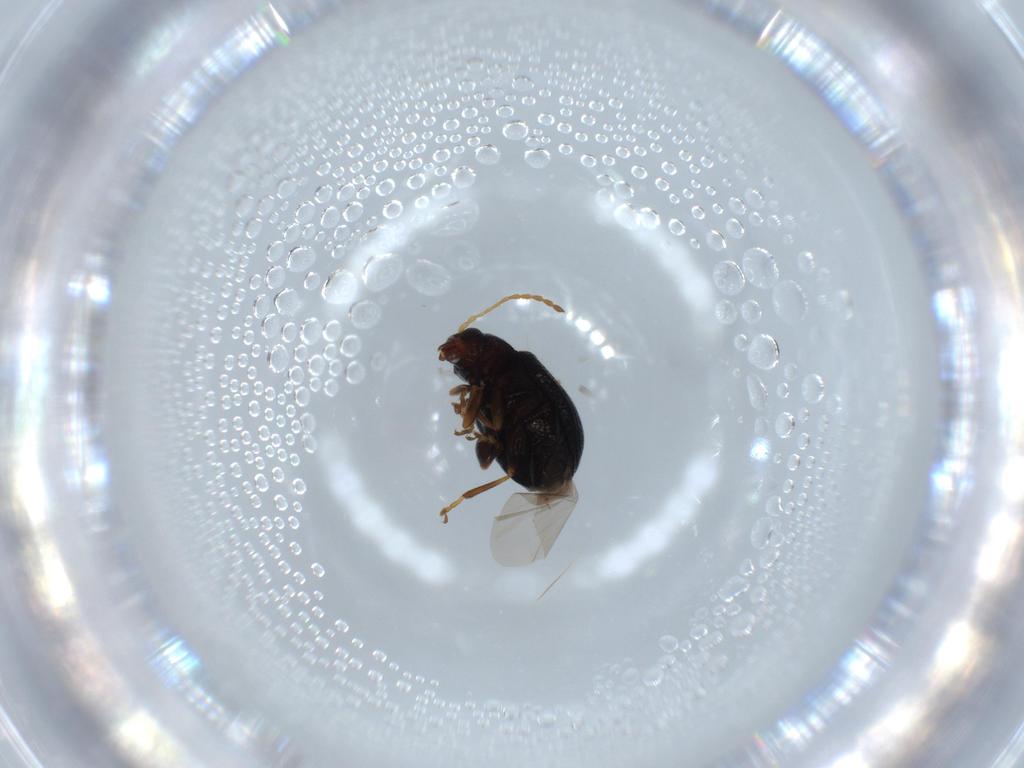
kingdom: Animalia
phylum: Arthropoda
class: Insecta
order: Coleoptera
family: Chrysomelidae
